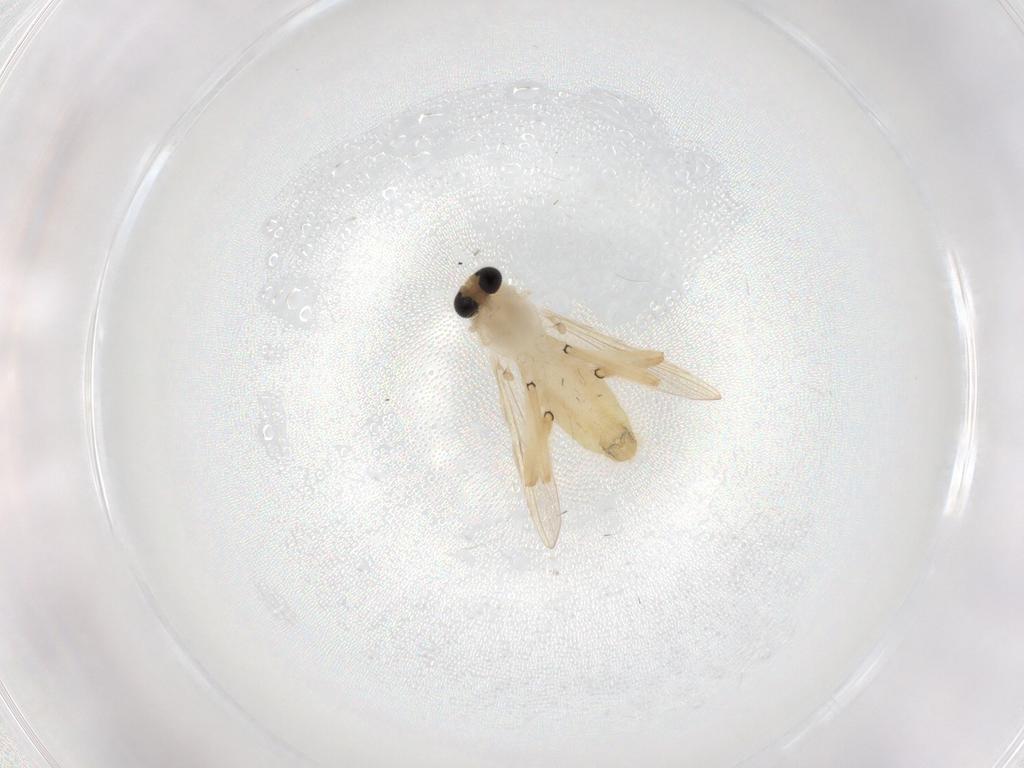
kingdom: Animalia
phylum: Arthropoda
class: Insecta
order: Diptera
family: Chironomidae
